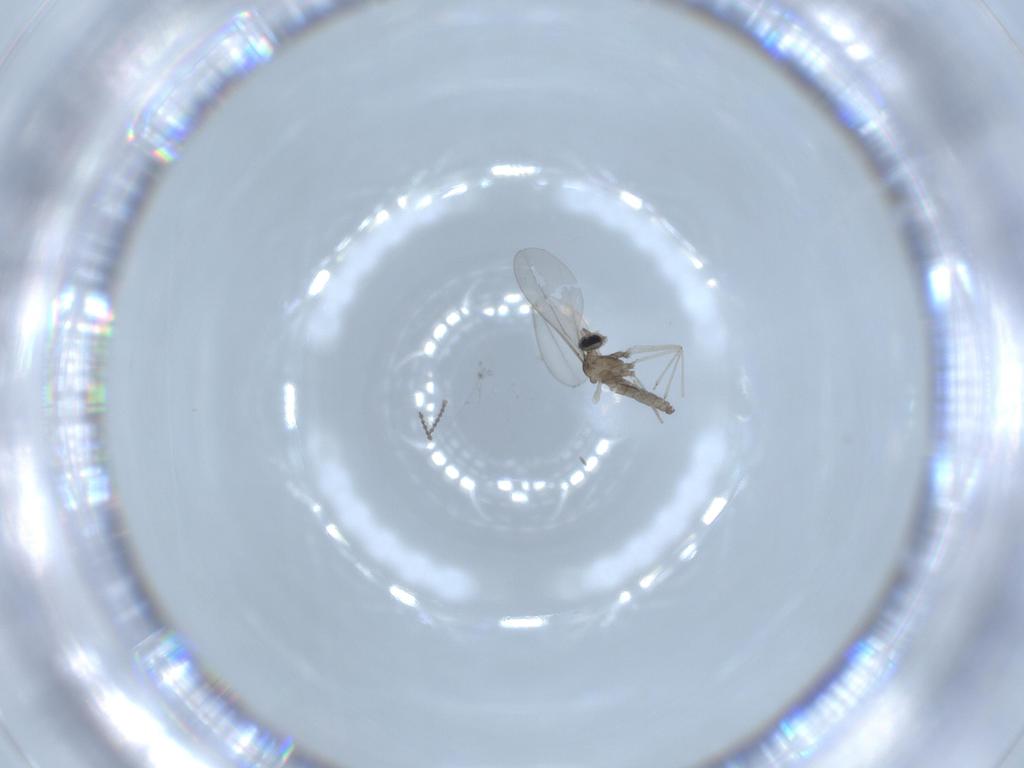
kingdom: Animalia
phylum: Arthropoda
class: Insecta
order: Diptera
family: Cecidomyiidae
